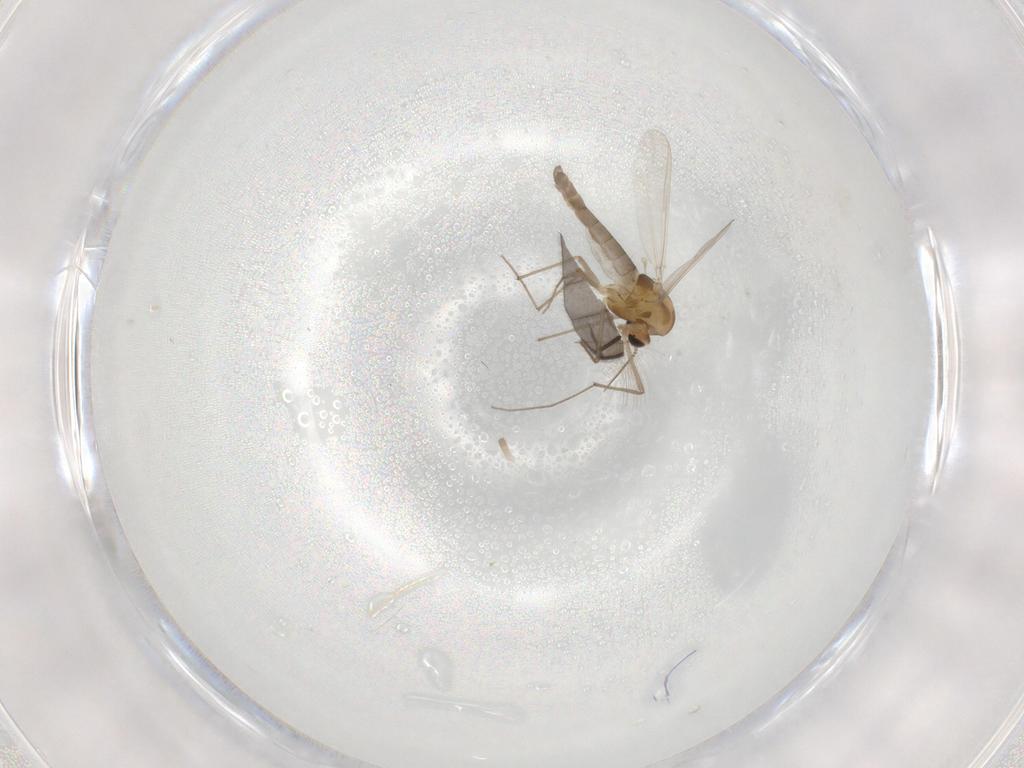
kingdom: Animalia
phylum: Arthropoda
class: Insecta
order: Diptera
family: Chironomidae
